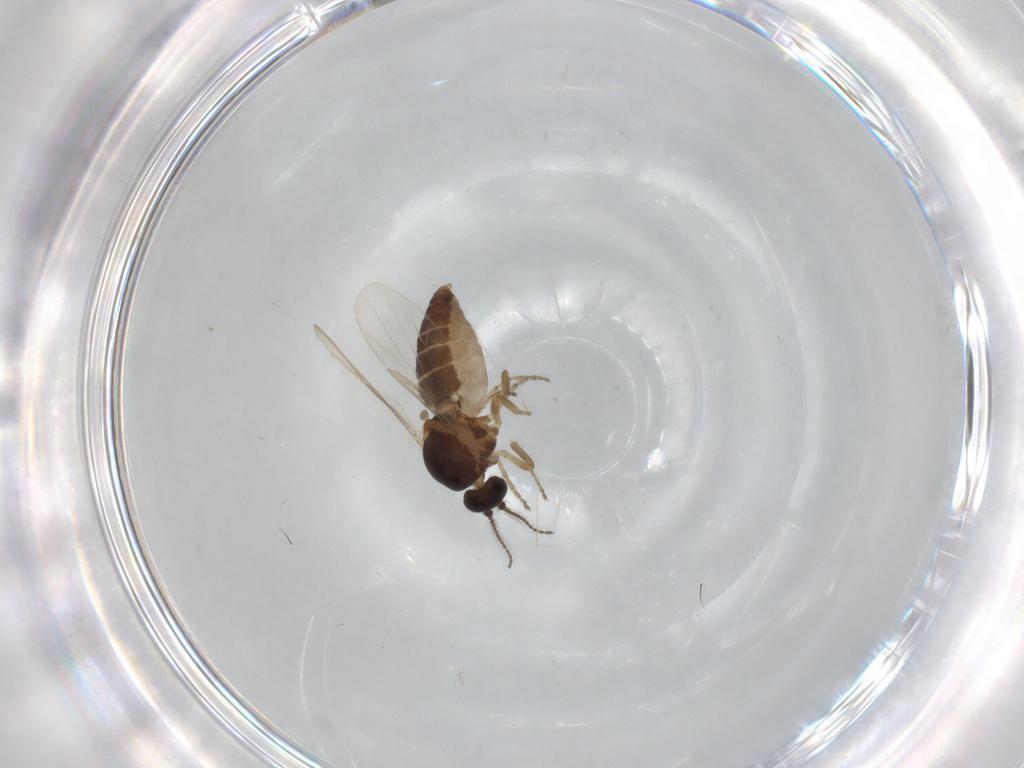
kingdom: Animalia
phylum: Arthropoda
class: Insecta
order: Diptera
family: Ceratopogonidae
